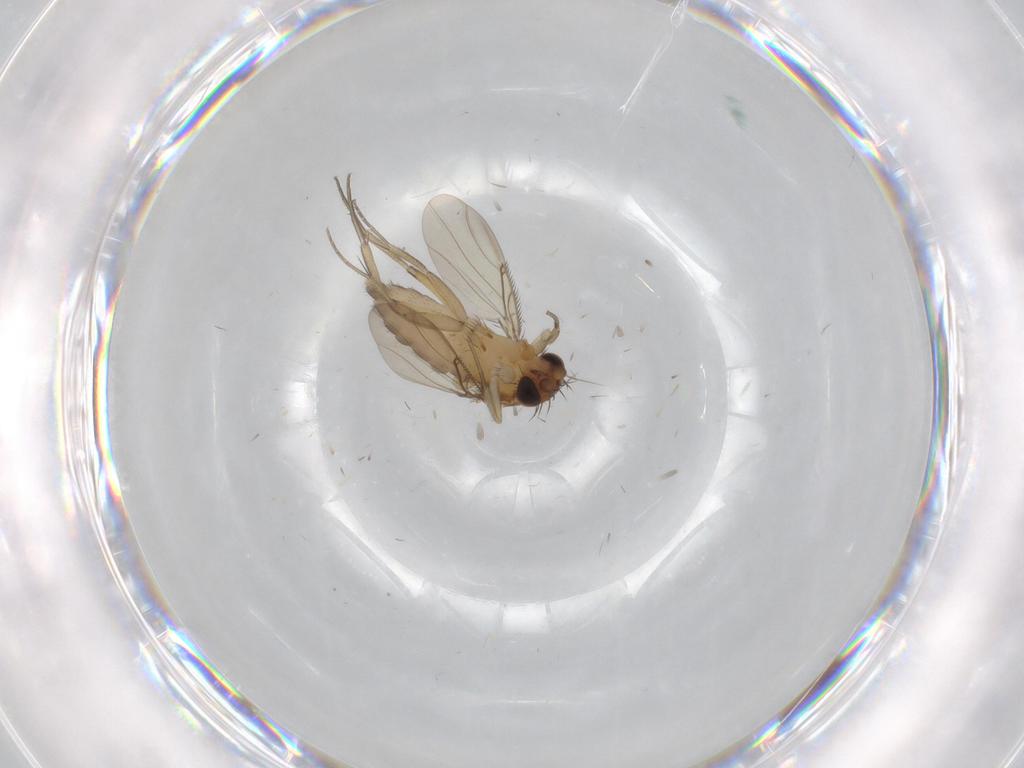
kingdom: Animalia
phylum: Arthropoda
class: Insecta
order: Diptera
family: Phoridae
